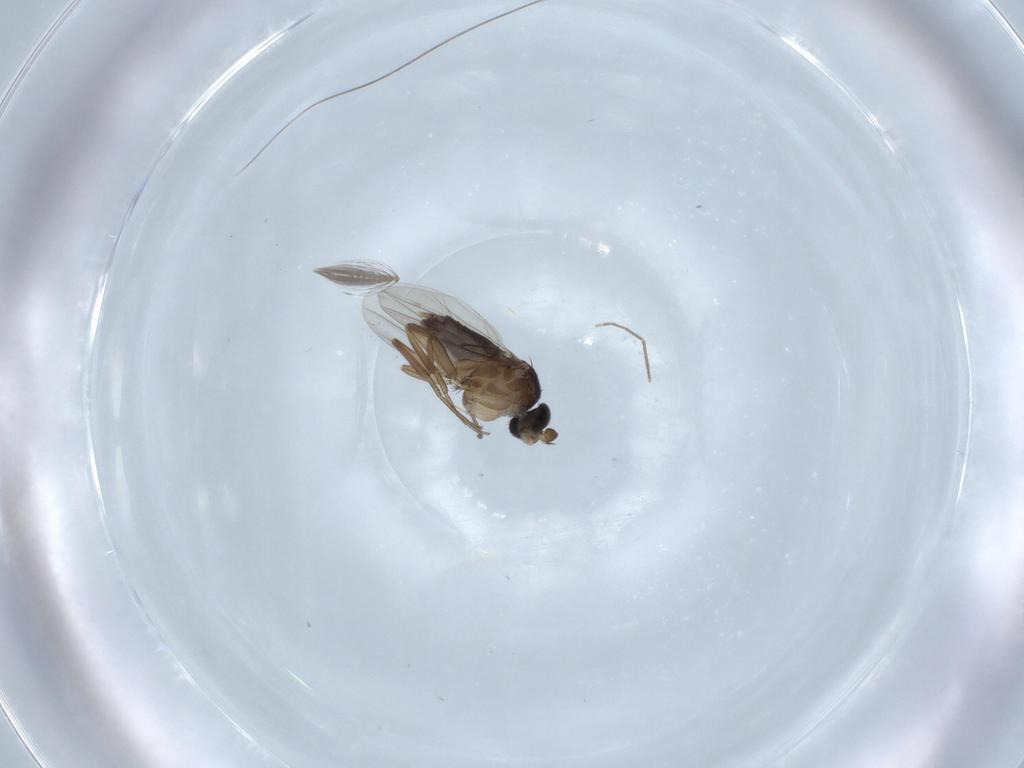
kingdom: Animalia
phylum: Arthropoda
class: Insecta
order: Diptera
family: Phoridae
